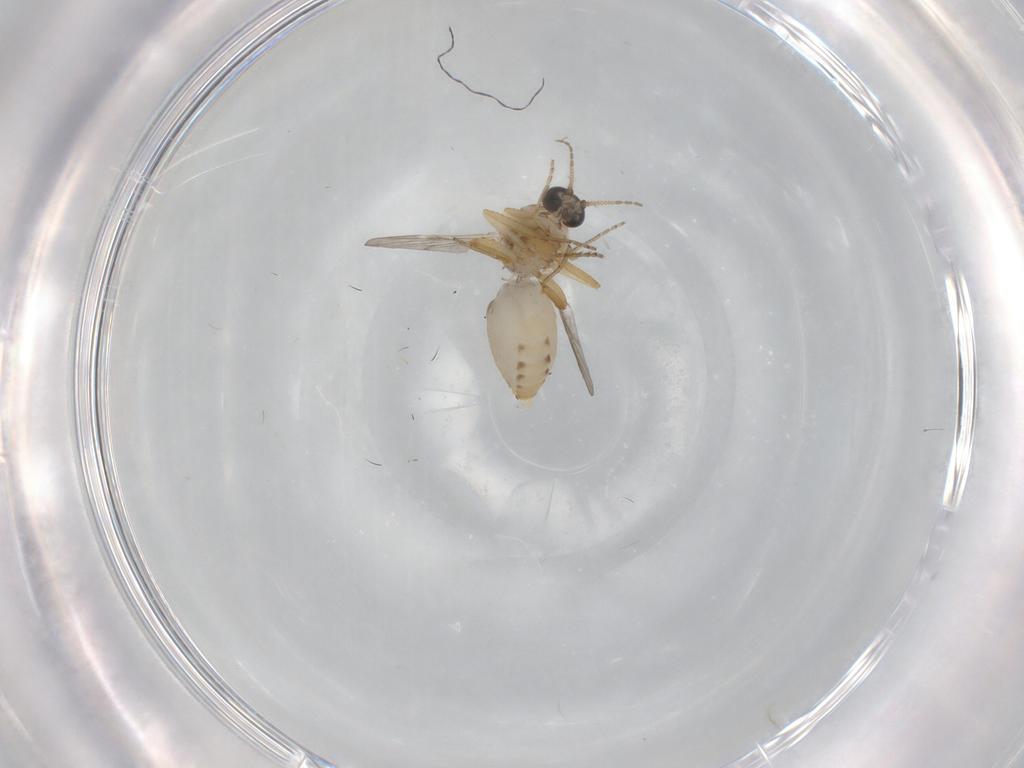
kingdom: Animalia
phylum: Arthropoda
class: Insecta
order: Diptera
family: Ceratopogonidae
